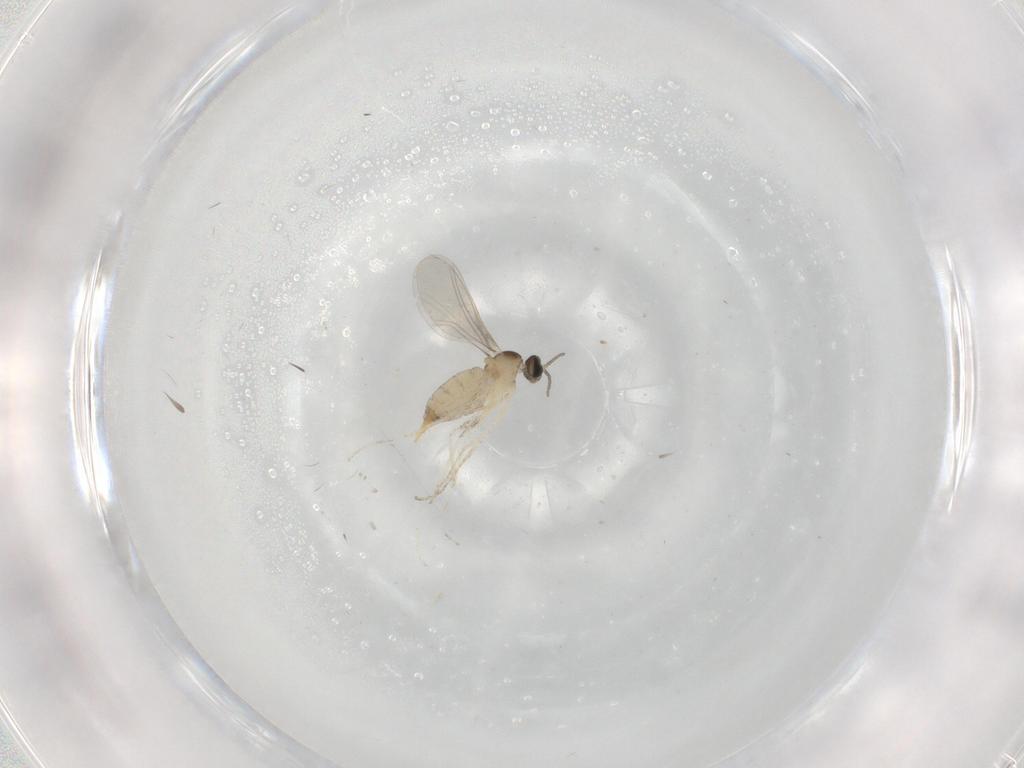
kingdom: Animalia
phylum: Arthropoda
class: Insecta
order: Diptera
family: Cecidomyiidae
